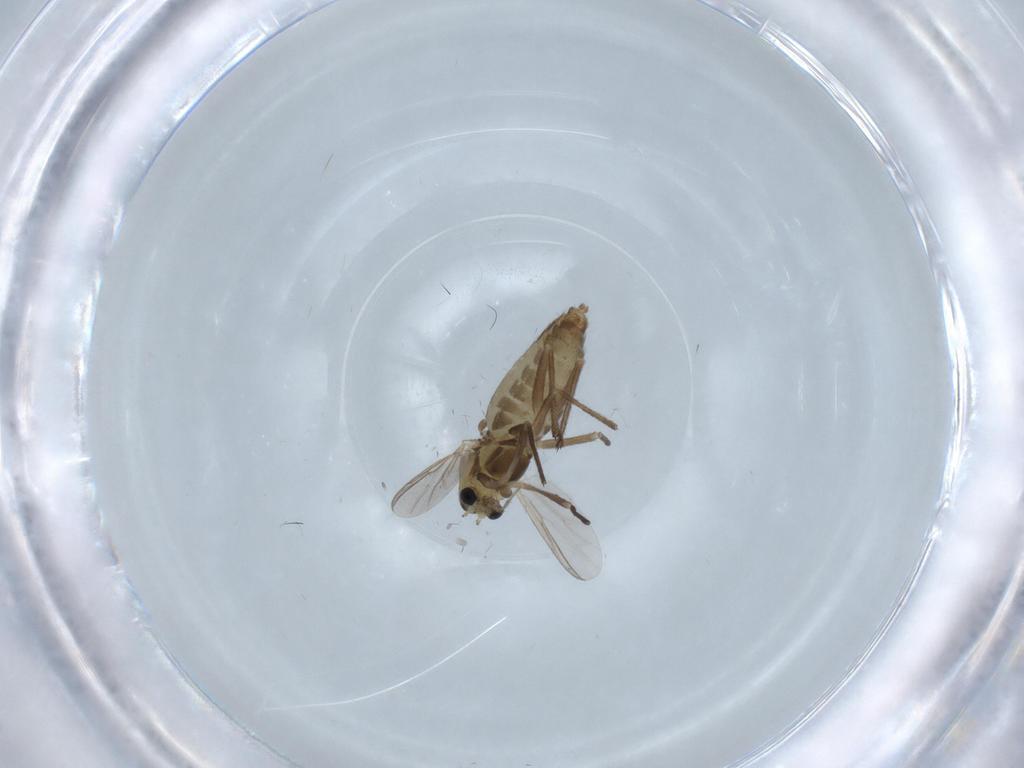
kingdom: Animalia
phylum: Arthropoda
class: Insecta
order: Diptera
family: Chironomidae
